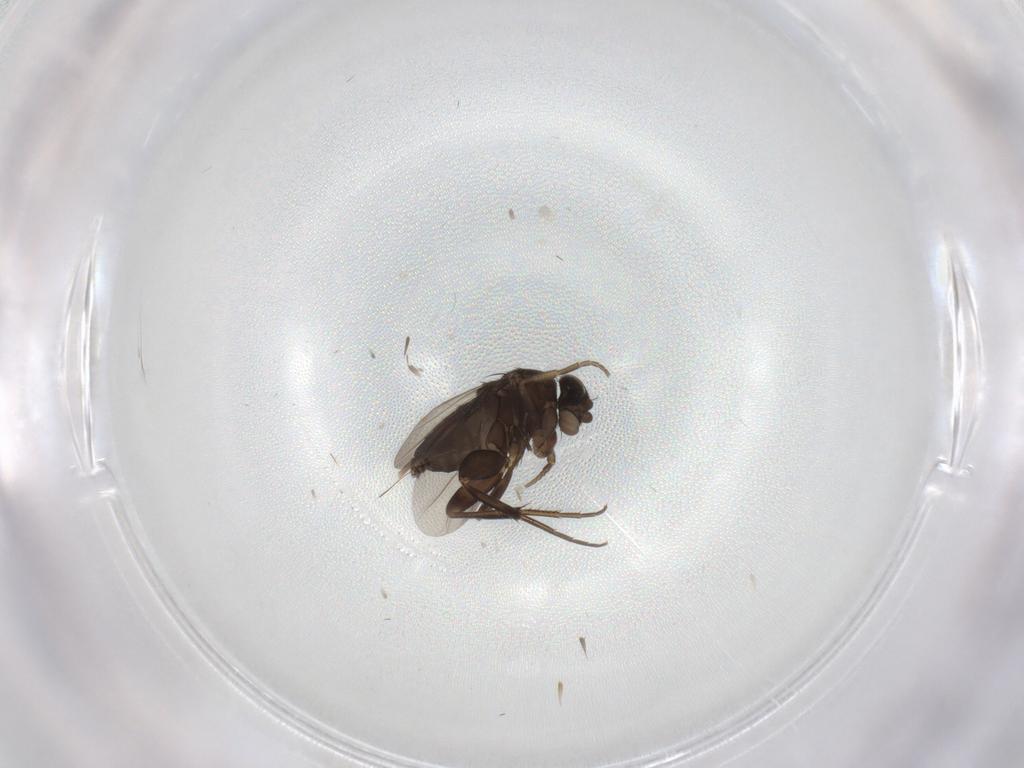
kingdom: Animalia
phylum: Arthropoda
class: Insecta
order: Diptera
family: Phoridae
